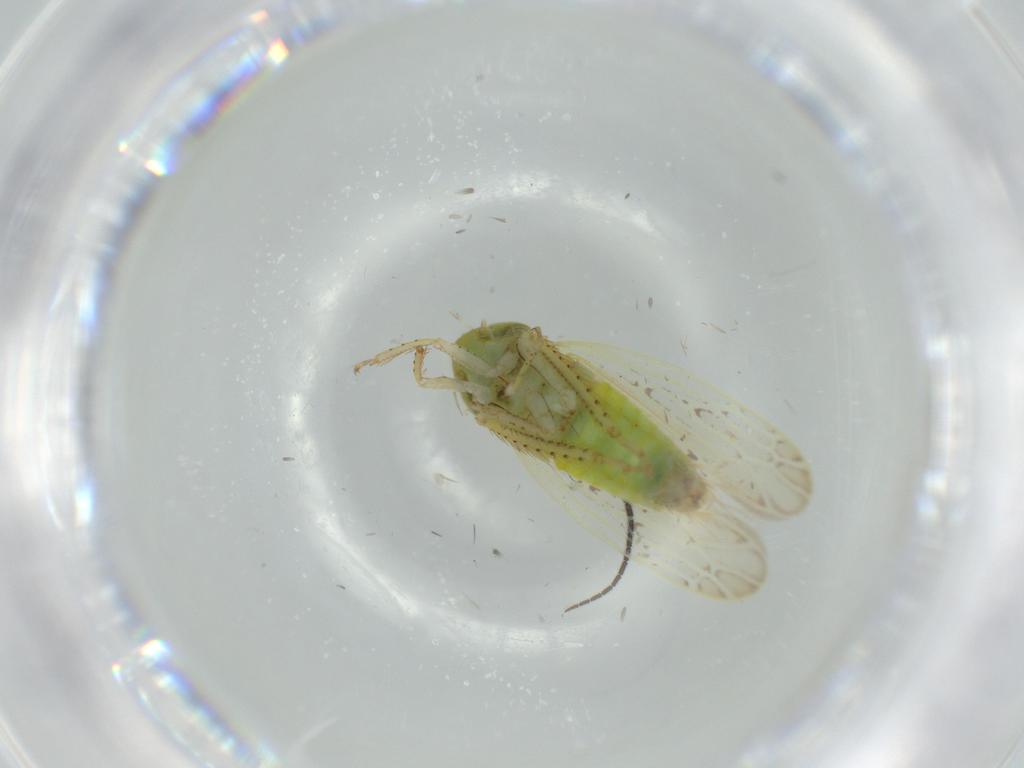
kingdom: Animalia
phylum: Arthropoda
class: Insecta
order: Hemiptera
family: Cicadellidae
